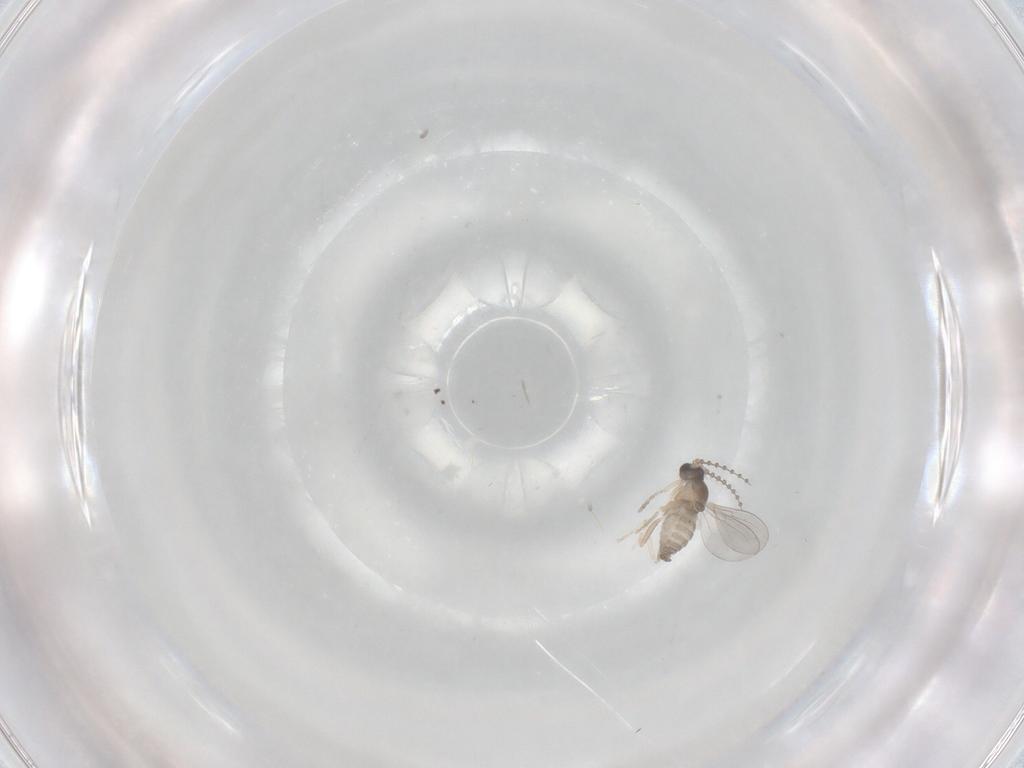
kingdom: Animalia
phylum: Arthropoda
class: Insecta
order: Diptera
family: Sciaridae
